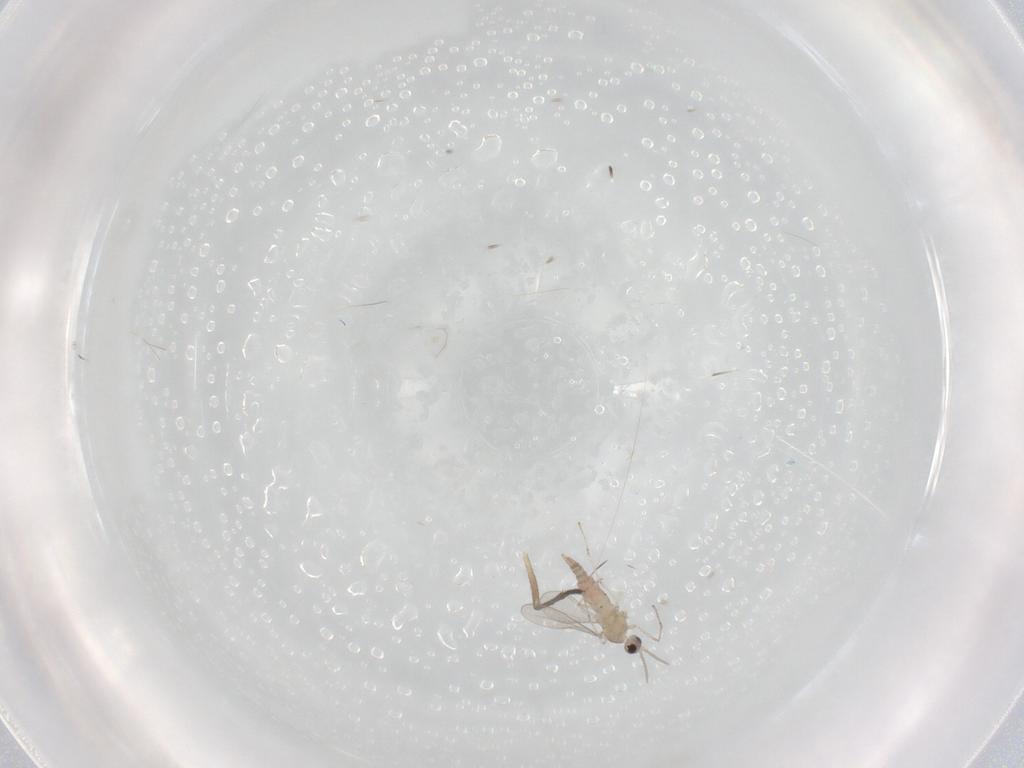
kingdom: Animalia
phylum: Arthropoda
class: Insecta
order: Diptera
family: Cecidomyiidae
